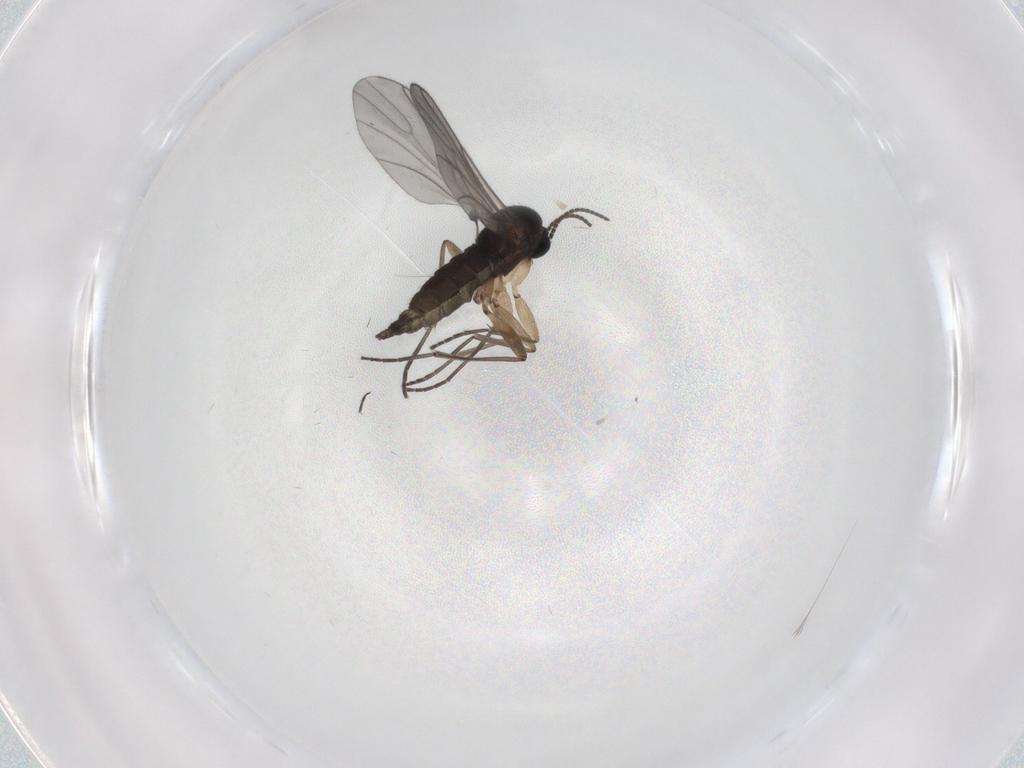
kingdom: Animalia
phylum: Arthropoda
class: Insecta
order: Diptera
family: Sciaridae
